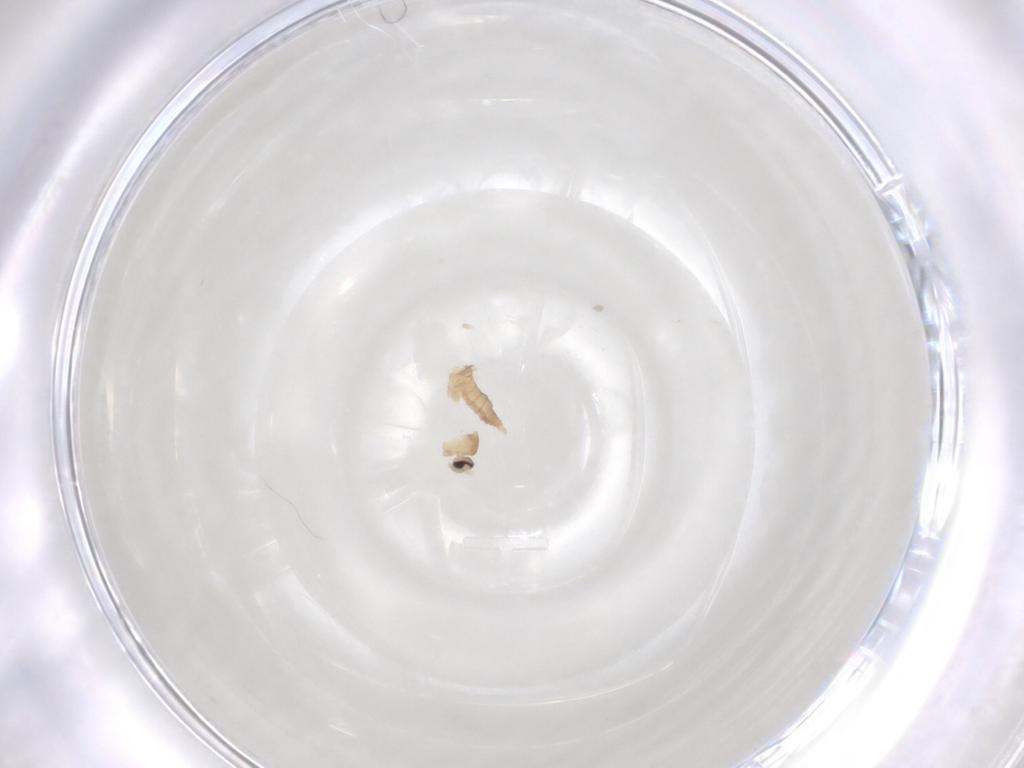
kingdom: Animalia
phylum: Arthropoda
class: Insecta
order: Diptera
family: Cecidomyiidae
